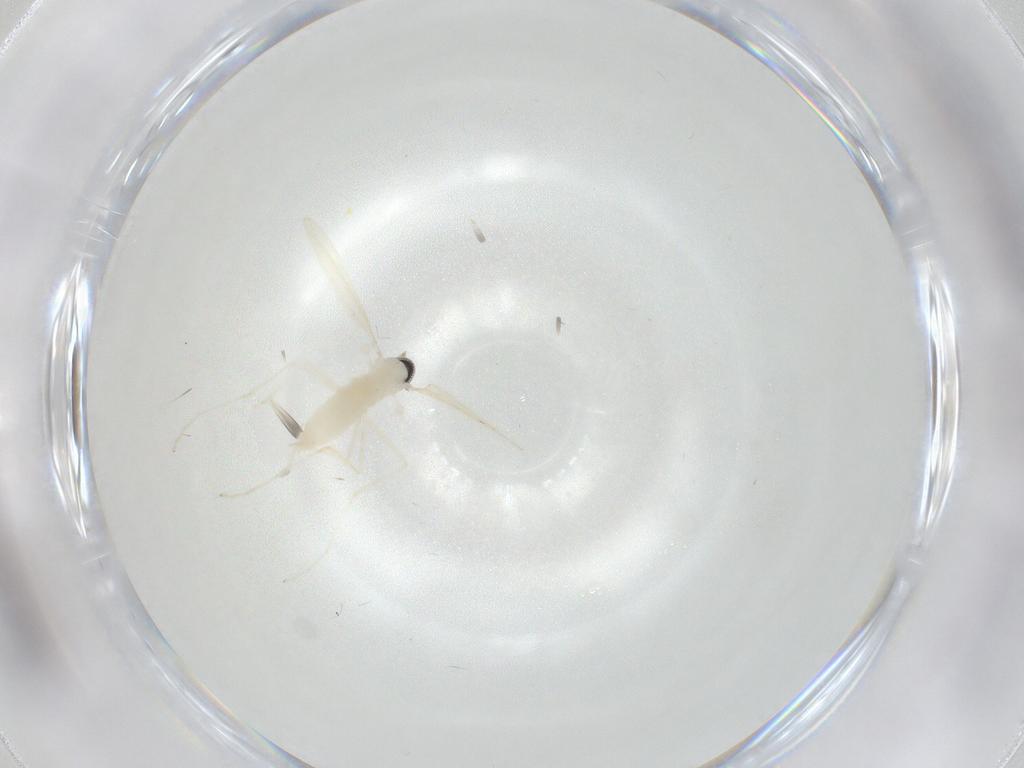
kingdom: Animalia
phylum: Arthropoda
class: Insecta
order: Diptera
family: Cecidomyiidae
